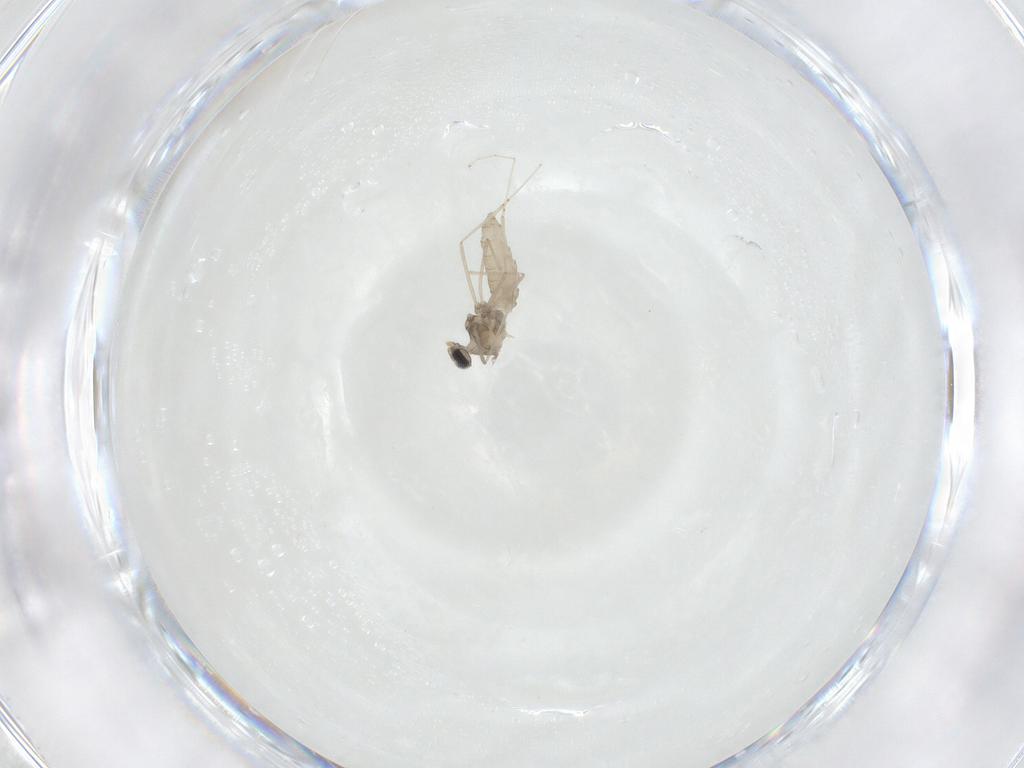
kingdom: Animalia
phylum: Arthropoda
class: Insecta
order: Diptera
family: Cecidomyiidae
